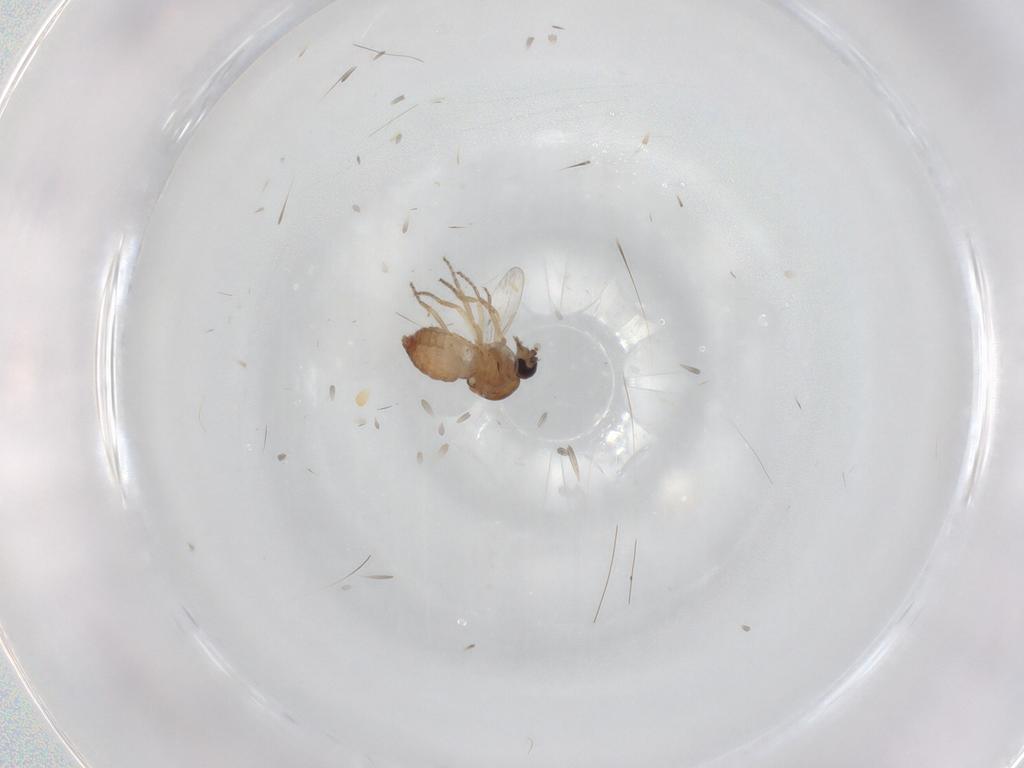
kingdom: Animalia
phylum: Arthropoda
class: Insecta
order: Diptera
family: Ceratopogonidae
